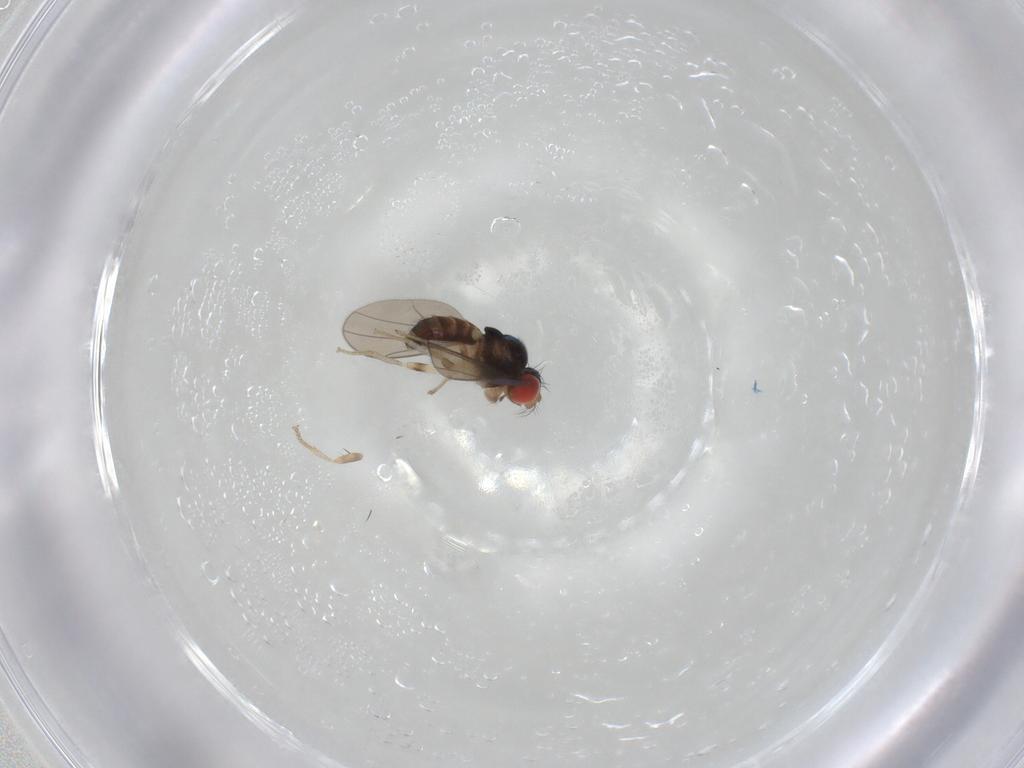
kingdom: Animalia
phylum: Arthropoda
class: Insecta
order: Diptera
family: Drosophilidae
